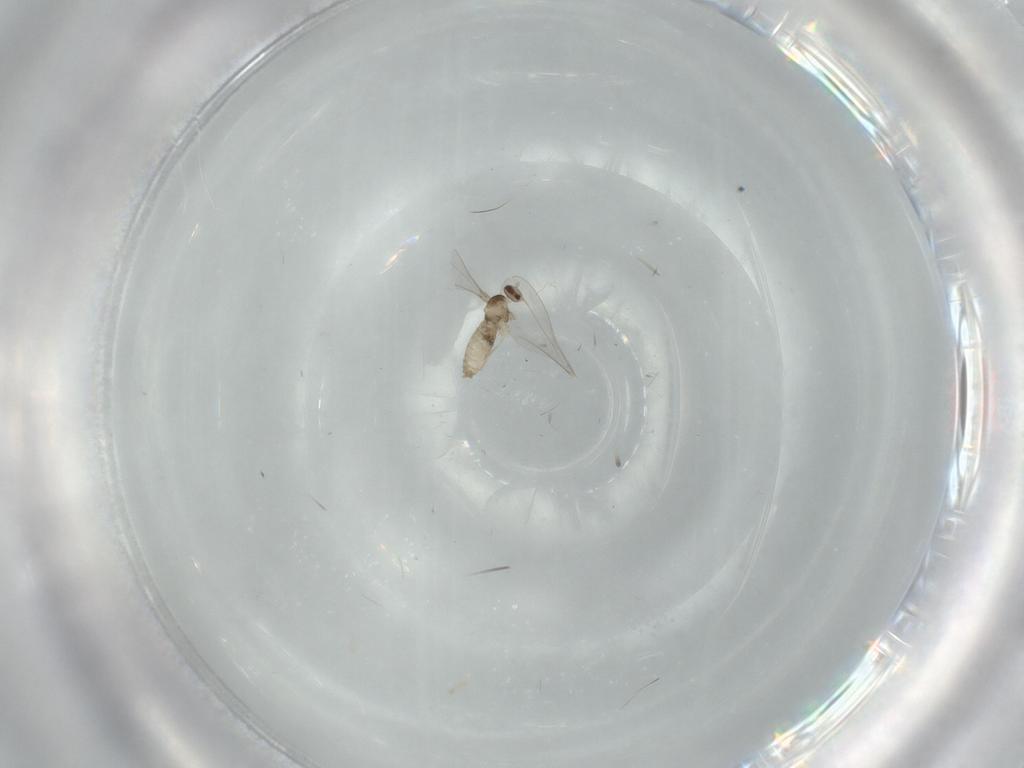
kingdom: Animalia
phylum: Arthropoda
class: Insecta
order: Diptera
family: Cecidomyiidae
